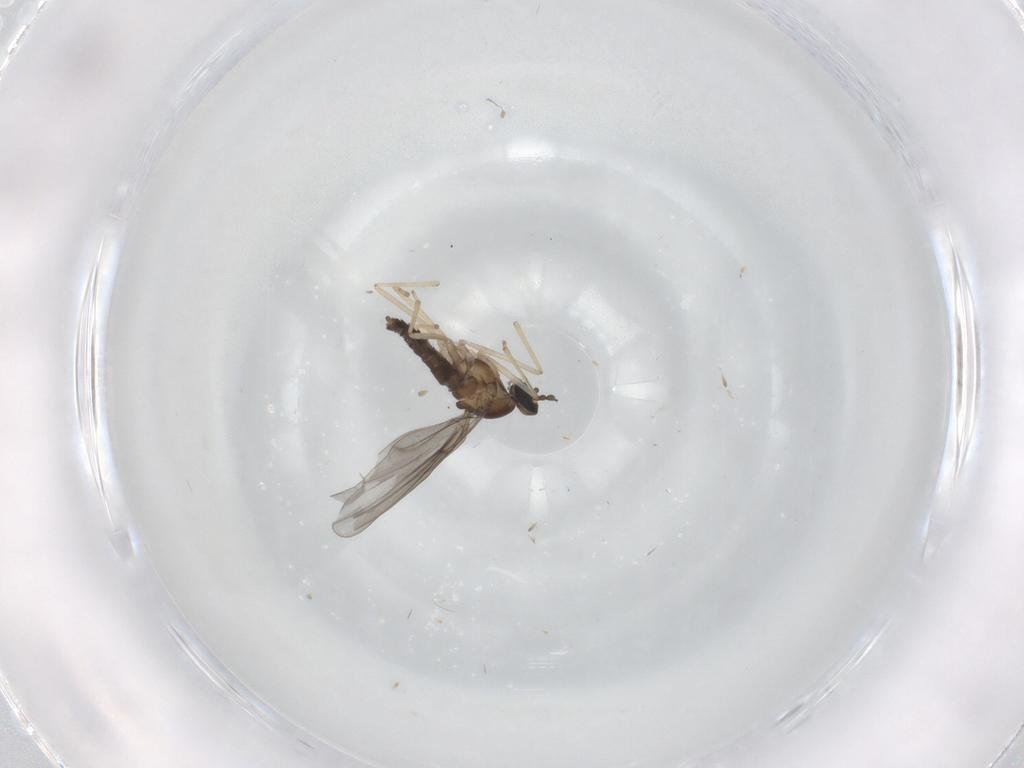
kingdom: Animalia
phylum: Arthropoda
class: Insecta
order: Diptera
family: Cecidomyiidae
